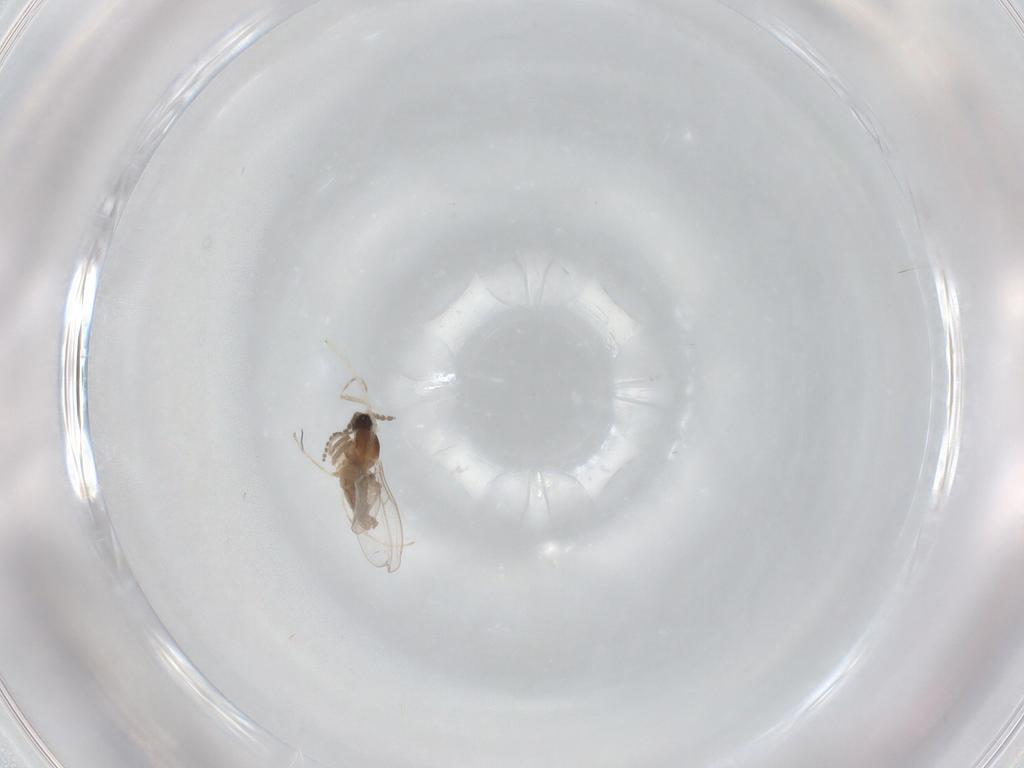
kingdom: Animalia
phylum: Arthropoda
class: Insecta
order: Diptera
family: Cecidomyiidae
